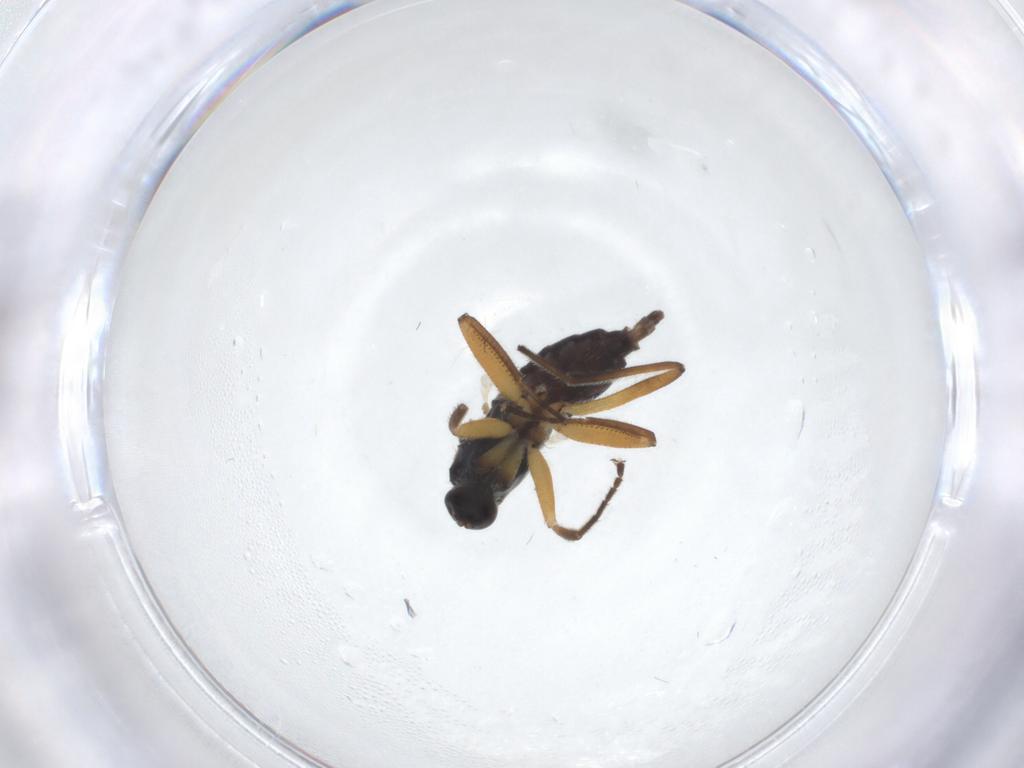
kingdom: Animalia
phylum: Arthropoda
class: Insecta
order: Diptera
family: Hybotidae
